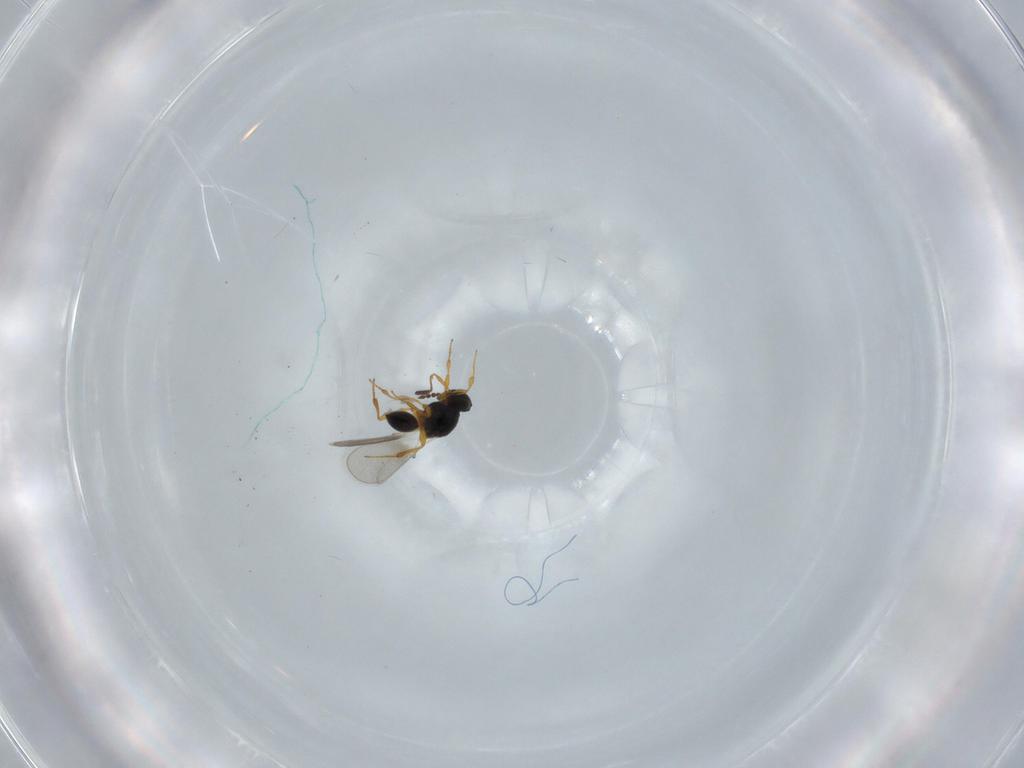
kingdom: Animalia
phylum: Arthropoda
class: Insecta
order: Hymenoptera
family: Platygastridae
